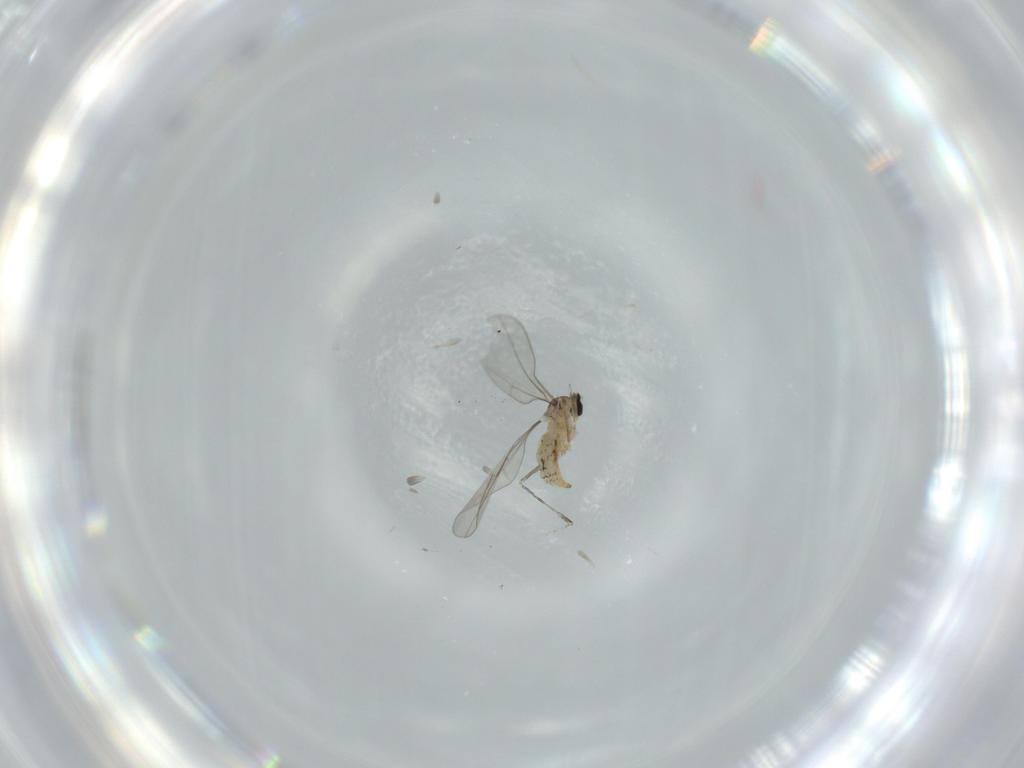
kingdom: Animalia
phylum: Arthropoda
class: Insecta
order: Diptera
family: Cecidomyiidae
